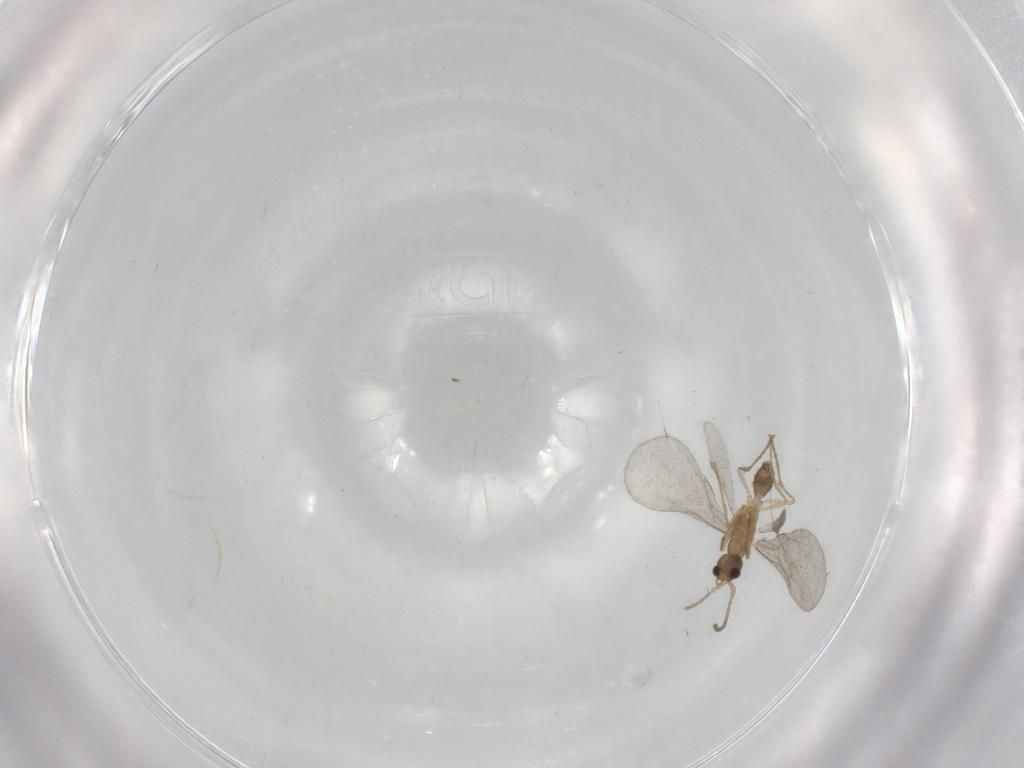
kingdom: Animalia
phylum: Arthropoda
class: Insecta
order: Hymenoptera
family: Formicidae
